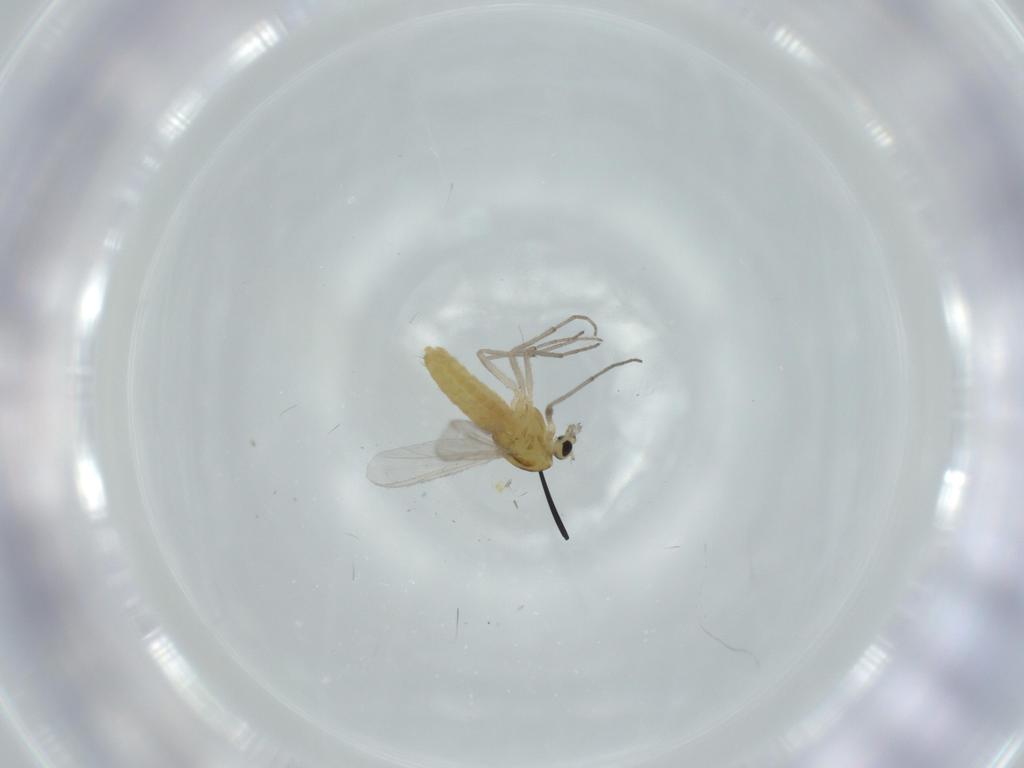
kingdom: Animalia
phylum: Arthropoda
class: Insecta
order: Diptera
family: Chironomidae
